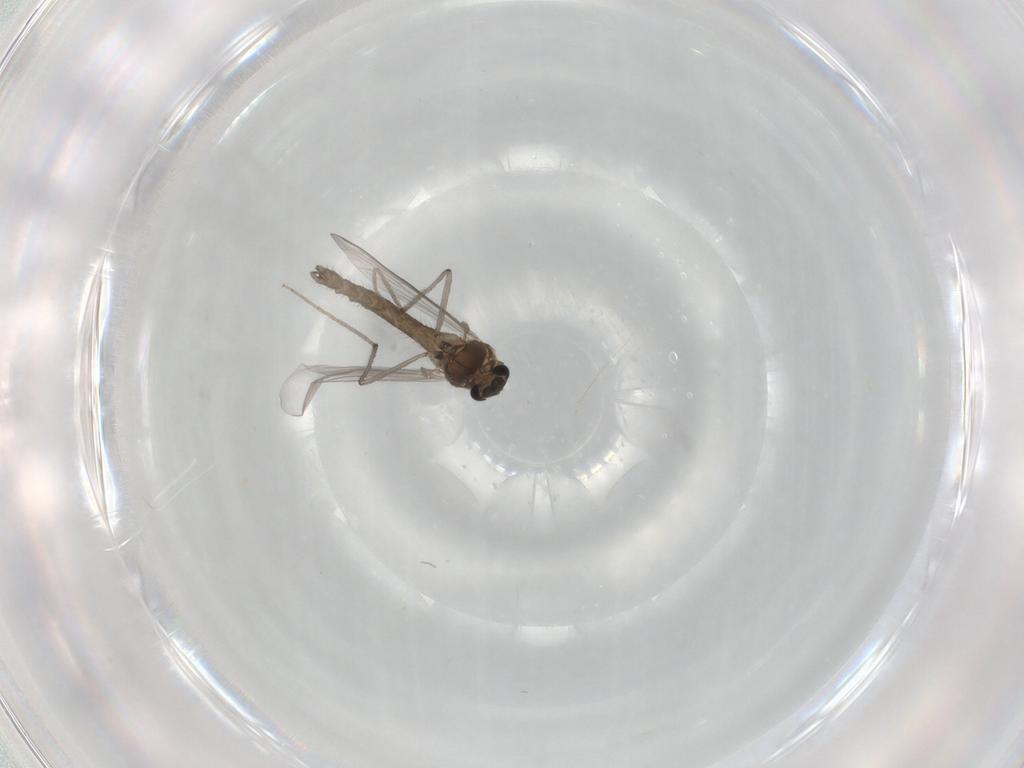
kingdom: Animalia
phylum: Arthropoda
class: Insecta
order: Diptera
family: Chironomidae
